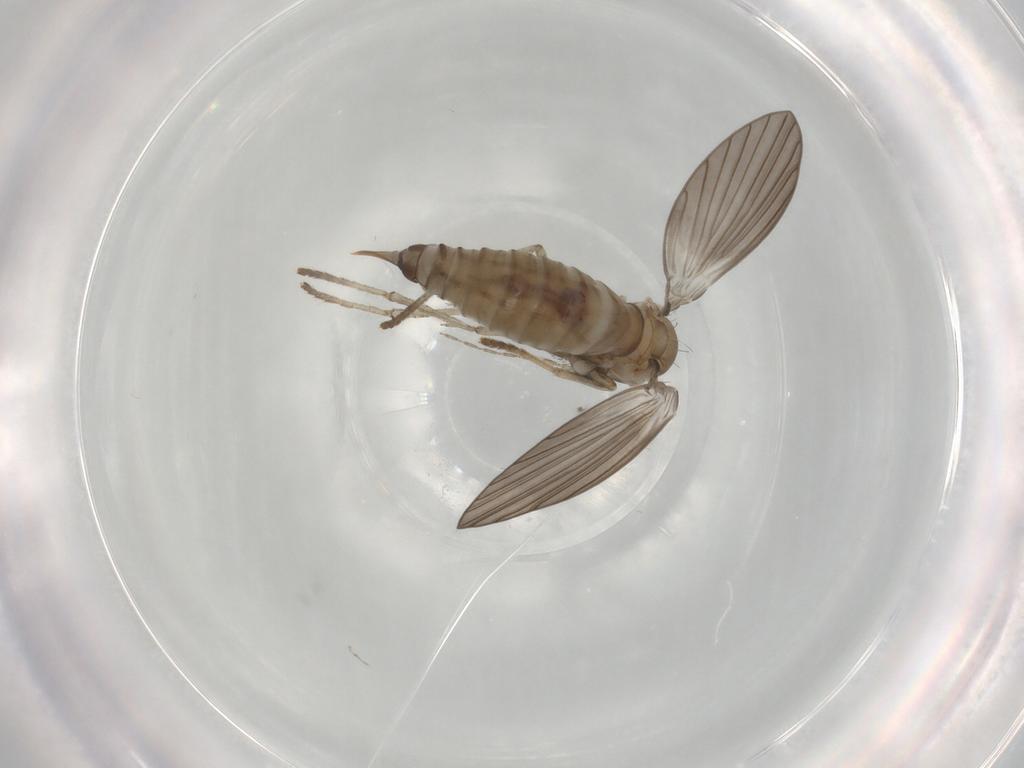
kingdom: Animalia
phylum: Arthropoda
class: Insecta
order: Diptera
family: Psychodidae
